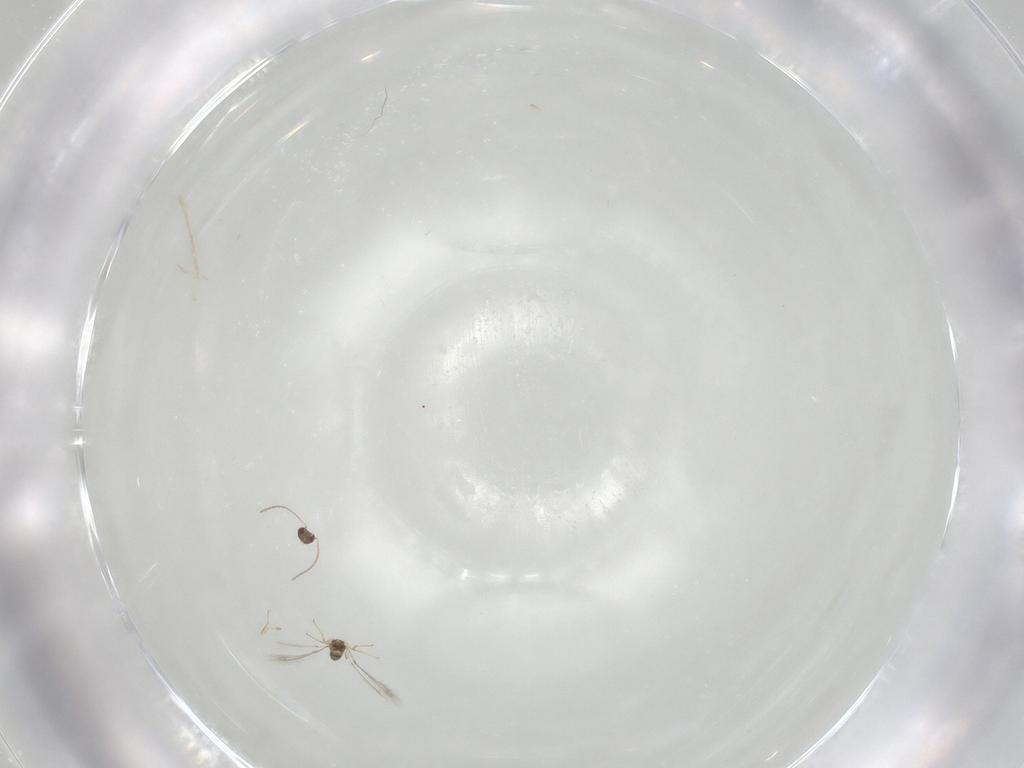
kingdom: Animalia
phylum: Arthropoda
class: Insecta
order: Hymenoptera
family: Mymaridae
